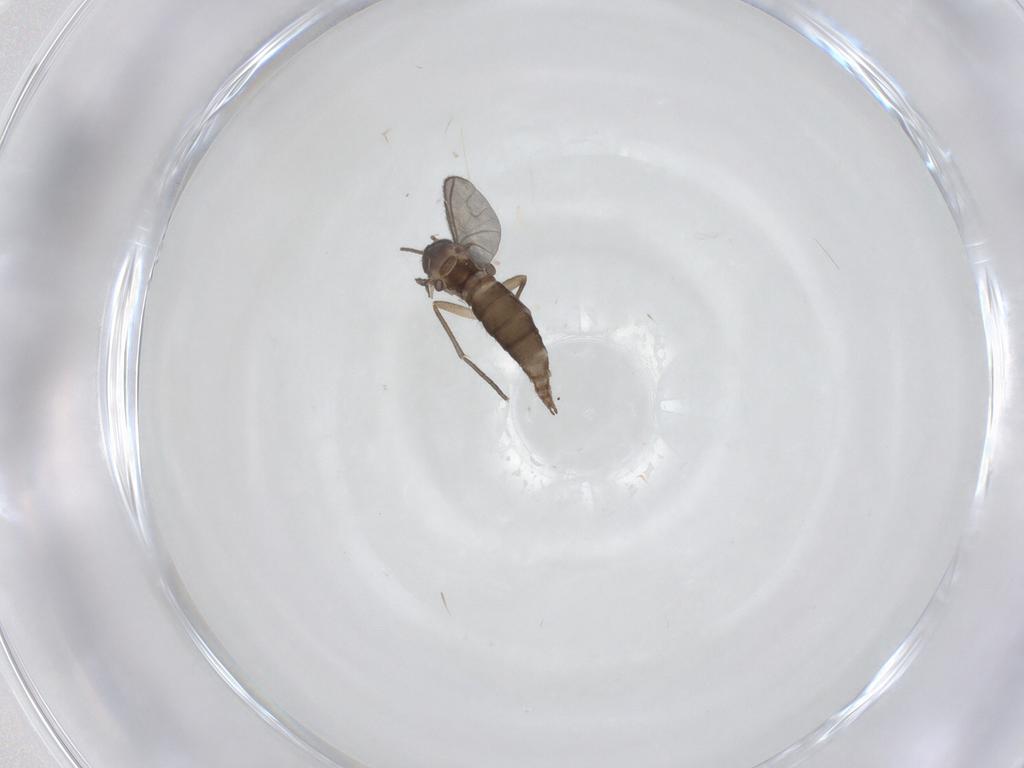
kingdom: Animalia
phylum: Arthropoda
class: Insecta
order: Diptera
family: Sciaridae
